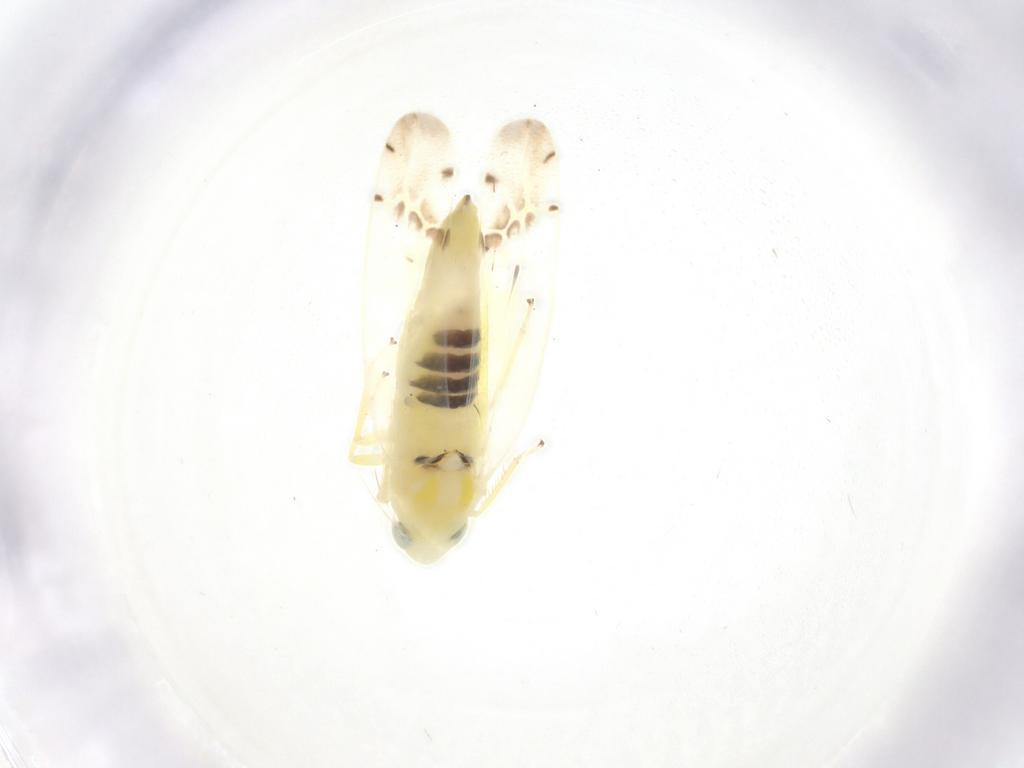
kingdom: Animalia
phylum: Arthropoda
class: Insecta
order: Hemiptera
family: Cicadellidae
